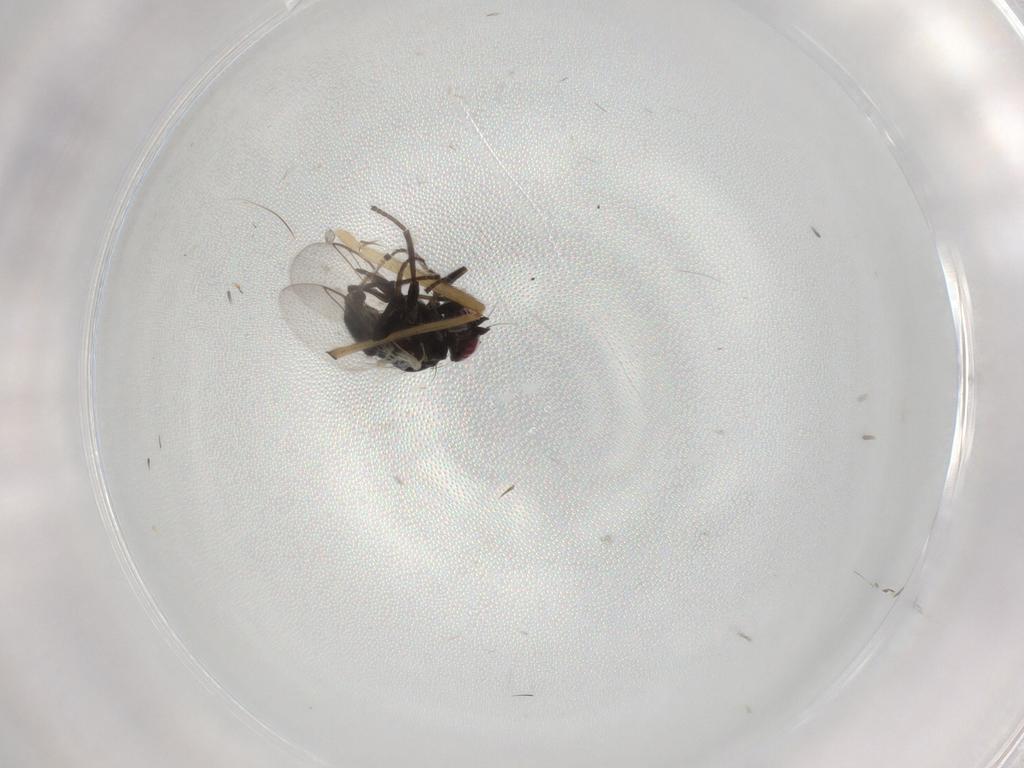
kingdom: Animalia
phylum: Arthropoda
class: Insecta
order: Diptera
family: Agromyzidae
